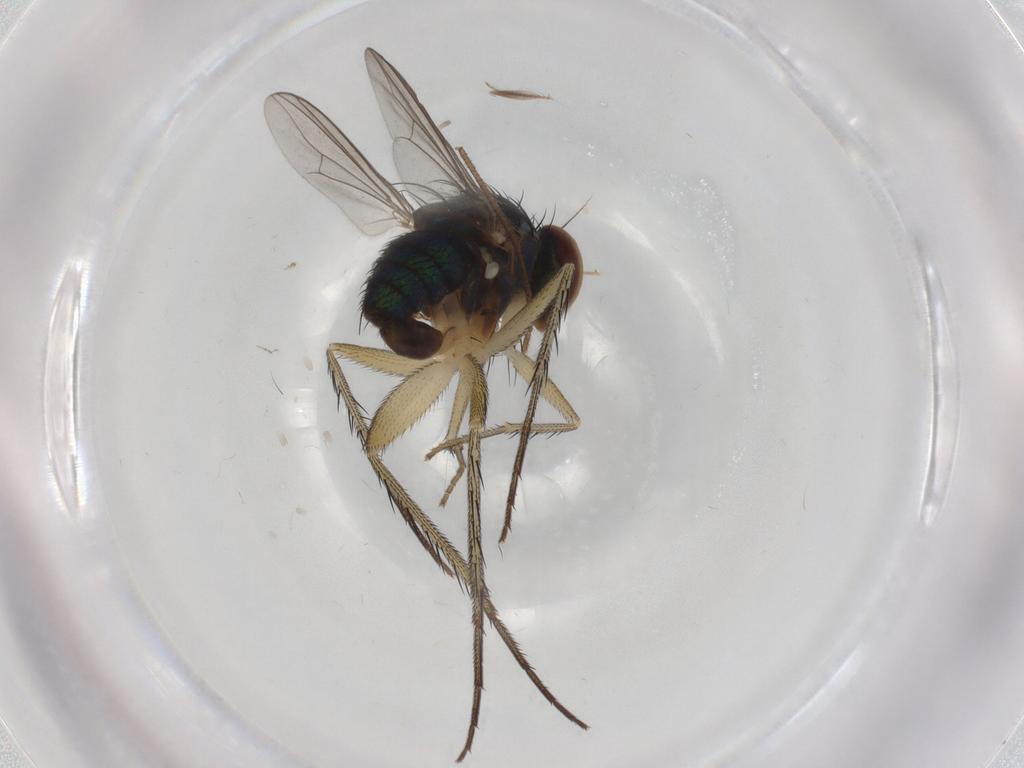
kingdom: Animalia
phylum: Arthropoda
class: Insecta
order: Diptera
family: Dolichopodidae
